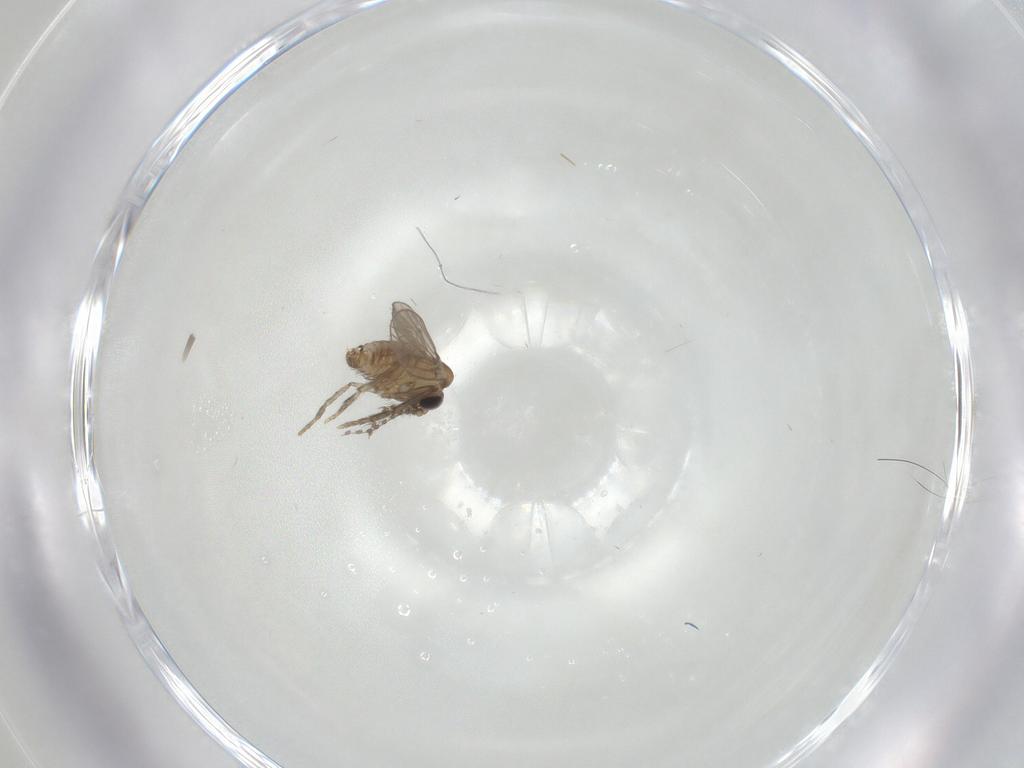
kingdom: Animalia
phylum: Arthropoda
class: Insecta
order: Diptera
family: Psychodidae
